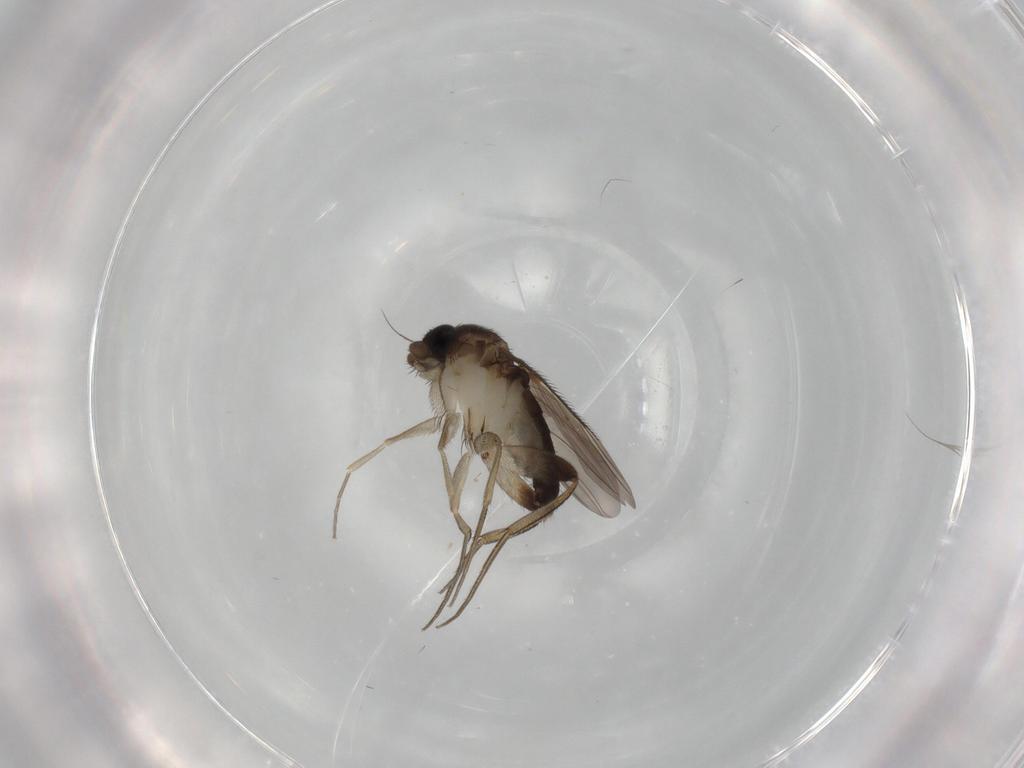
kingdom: Animalia
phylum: Arthropoda
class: Insecta
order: Diptera
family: Phoridae
